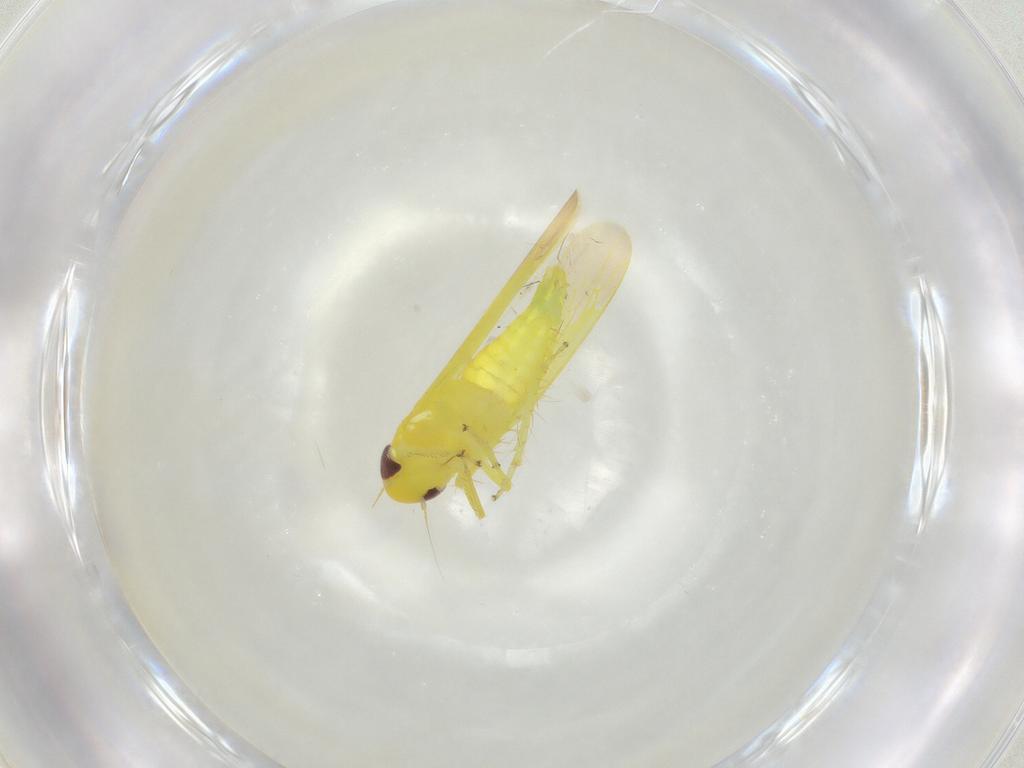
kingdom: Animalia
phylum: Arthropoda
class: Insecta
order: Hemiptera
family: Cicadellidae
